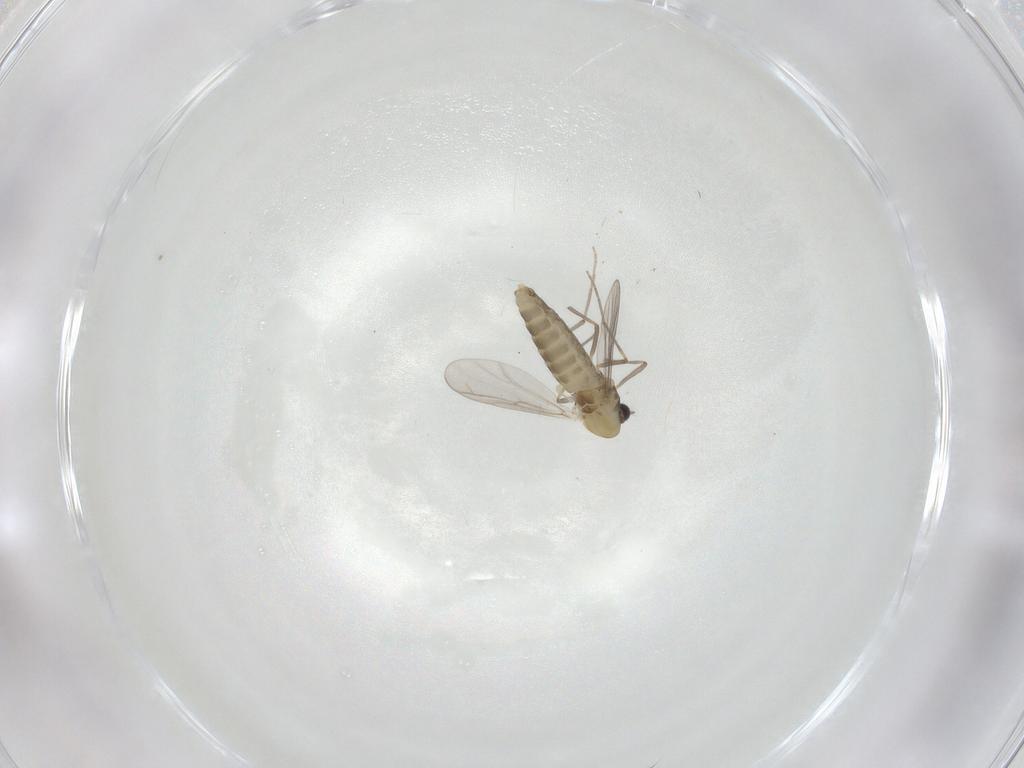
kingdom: Animalia
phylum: Arthropoda
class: Insecta
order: Diptera
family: Chironomidae
